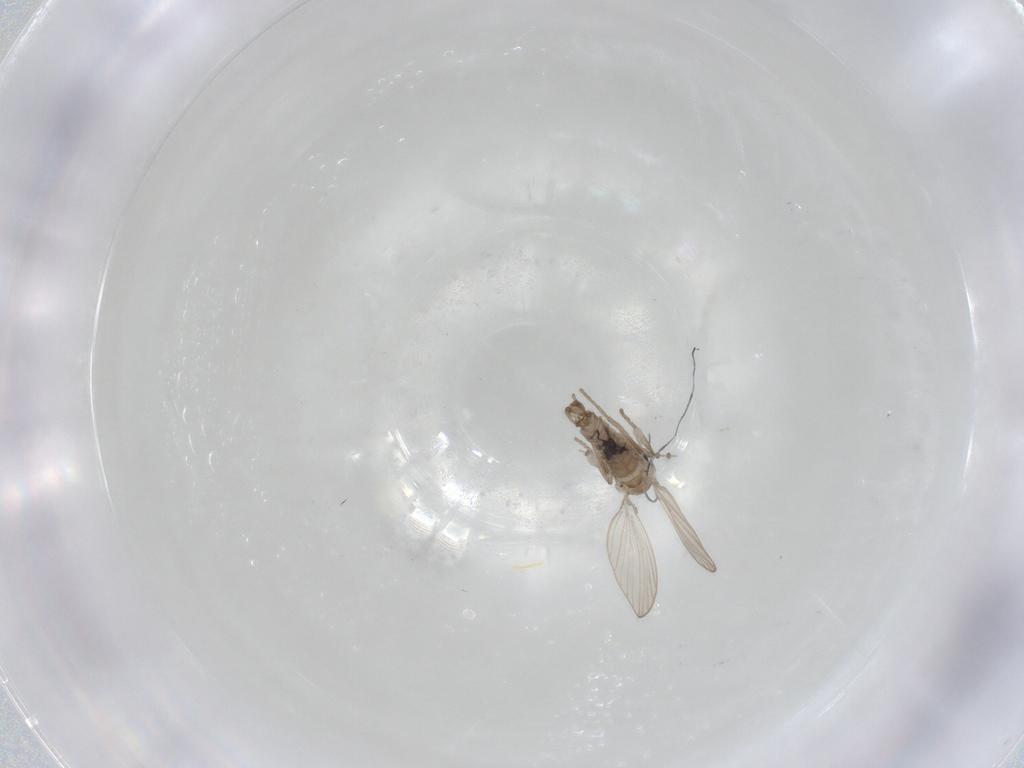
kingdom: Animalia
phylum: Arthropoda
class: Insecta
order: Diptera
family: Psychodidae
